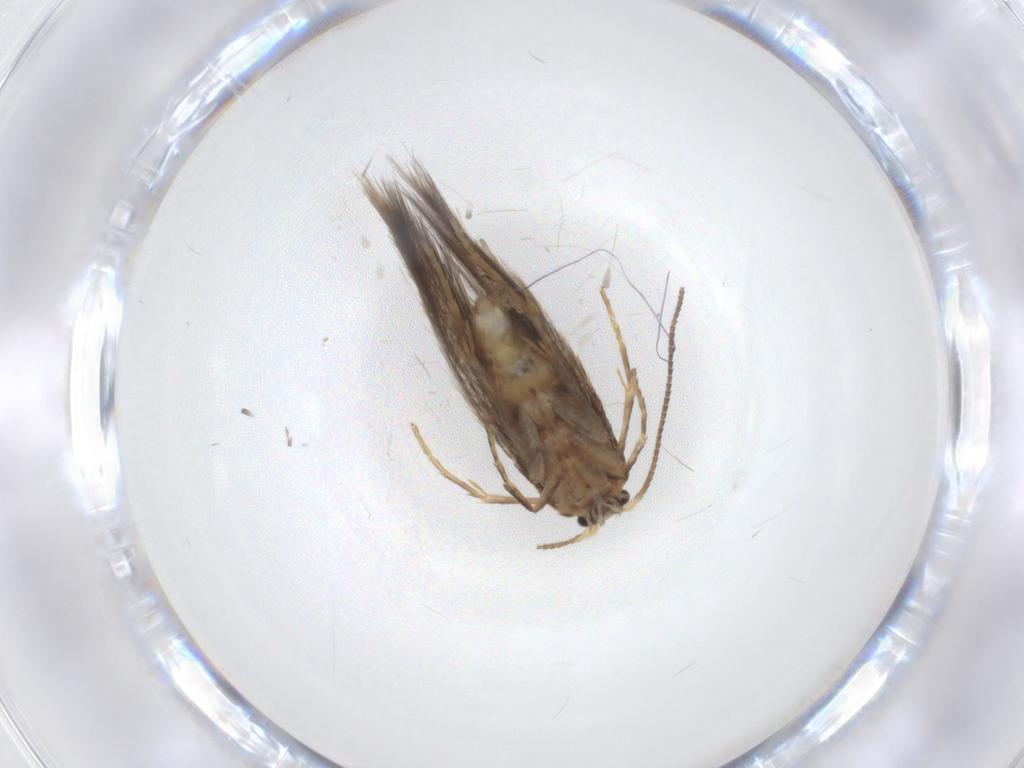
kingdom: Animalia
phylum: Arthropoda
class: Insecta
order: Lepidoptera
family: Nepticulidae
